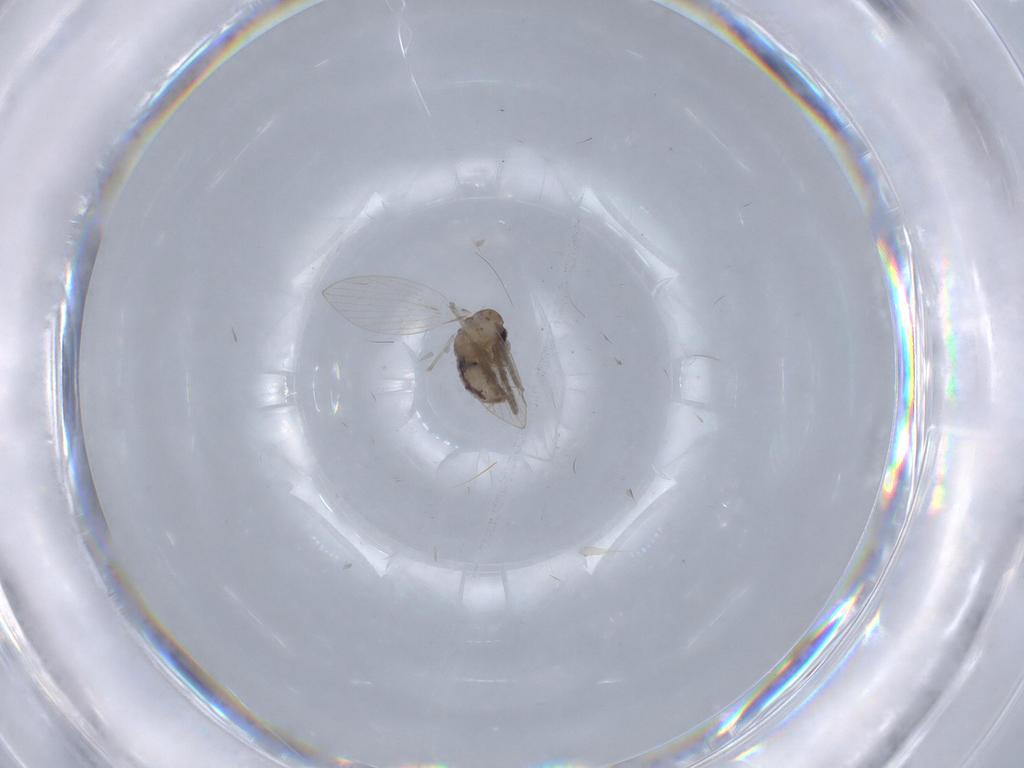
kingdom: Animalia
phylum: Arthropoda
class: Insecta
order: Diptera
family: Psychodidae
